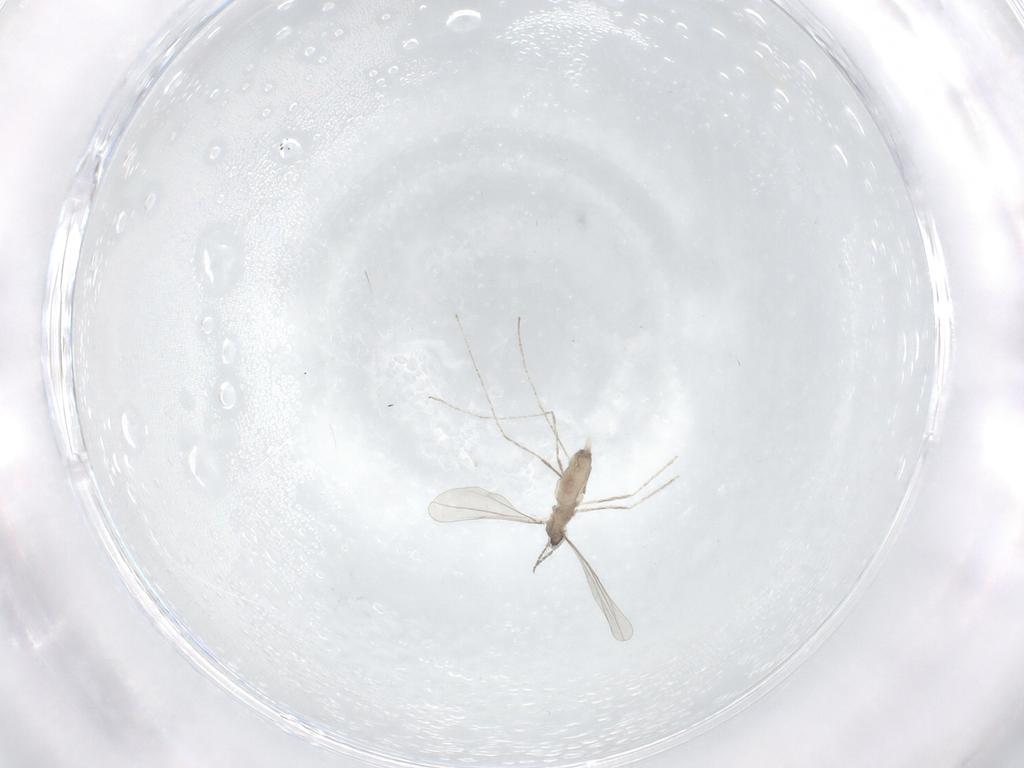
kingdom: Animalia
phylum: Arthropoda
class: Insecta
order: Diptera
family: Cecidomyiidae
